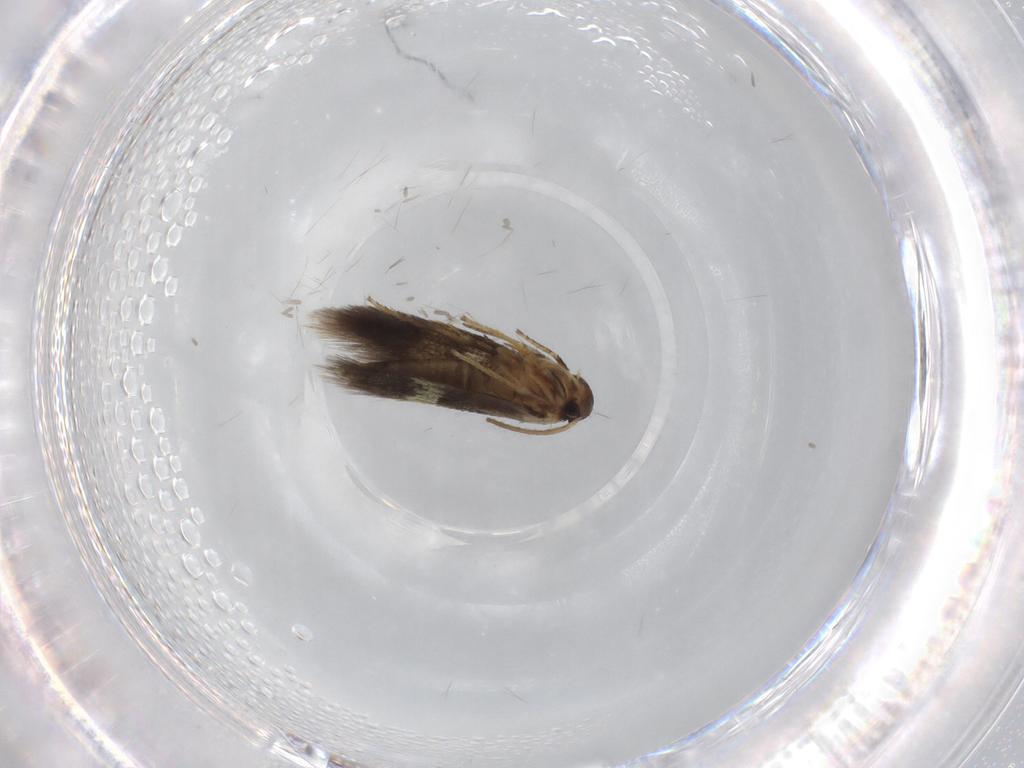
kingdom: Animalia
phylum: Arthropoda
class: Insecta
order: Lepidoptera
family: Heliozelidae
